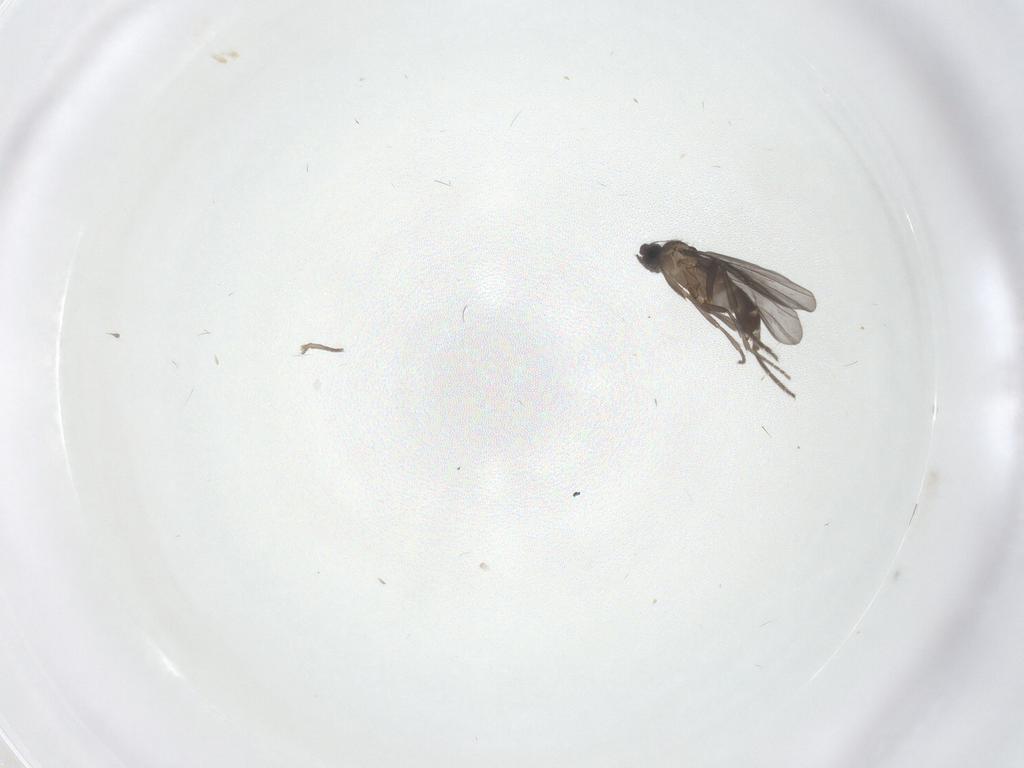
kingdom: Animalia
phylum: Arthropoda
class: Insecta
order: Diptera
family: Phoridae
